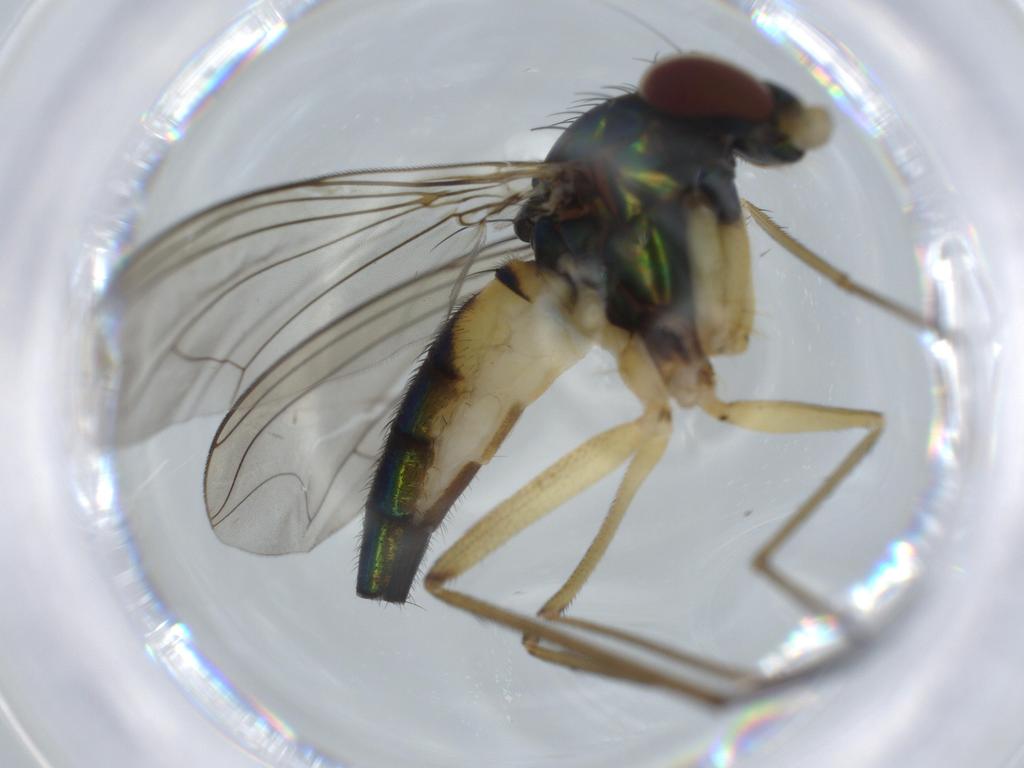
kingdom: Animalia
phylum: Arthropoda
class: Insecta
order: Diptera
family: Dolichopodidae
